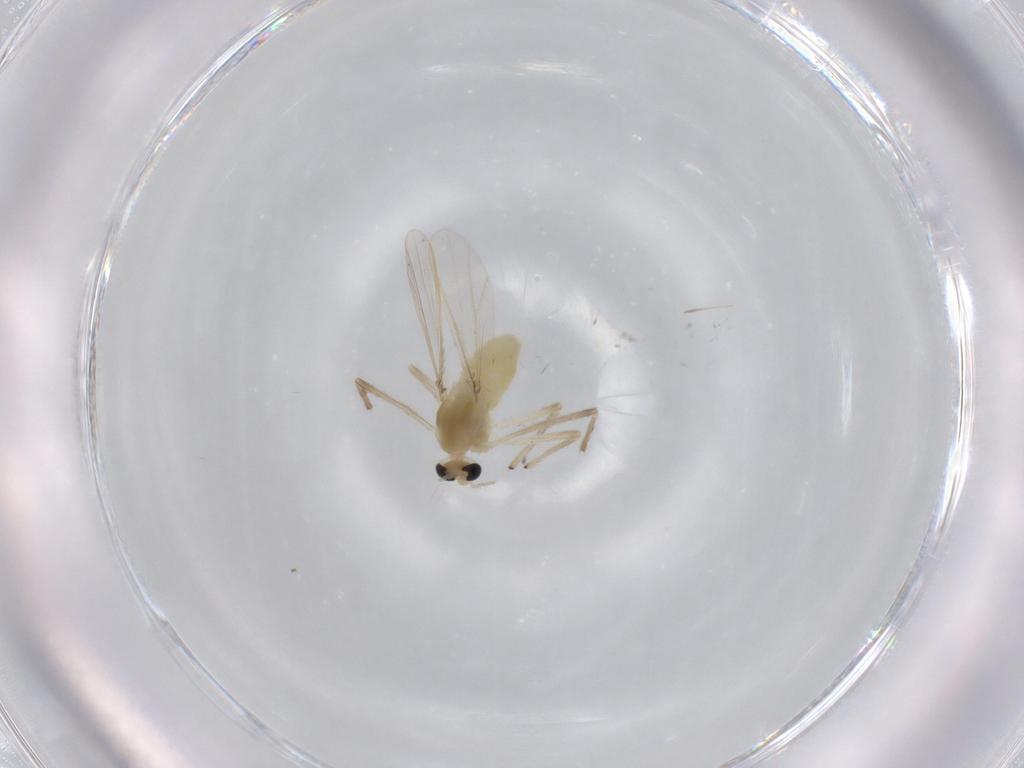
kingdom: Animalia
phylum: Arthropoda
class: Insecta
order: Diptera
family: Chironomidae
